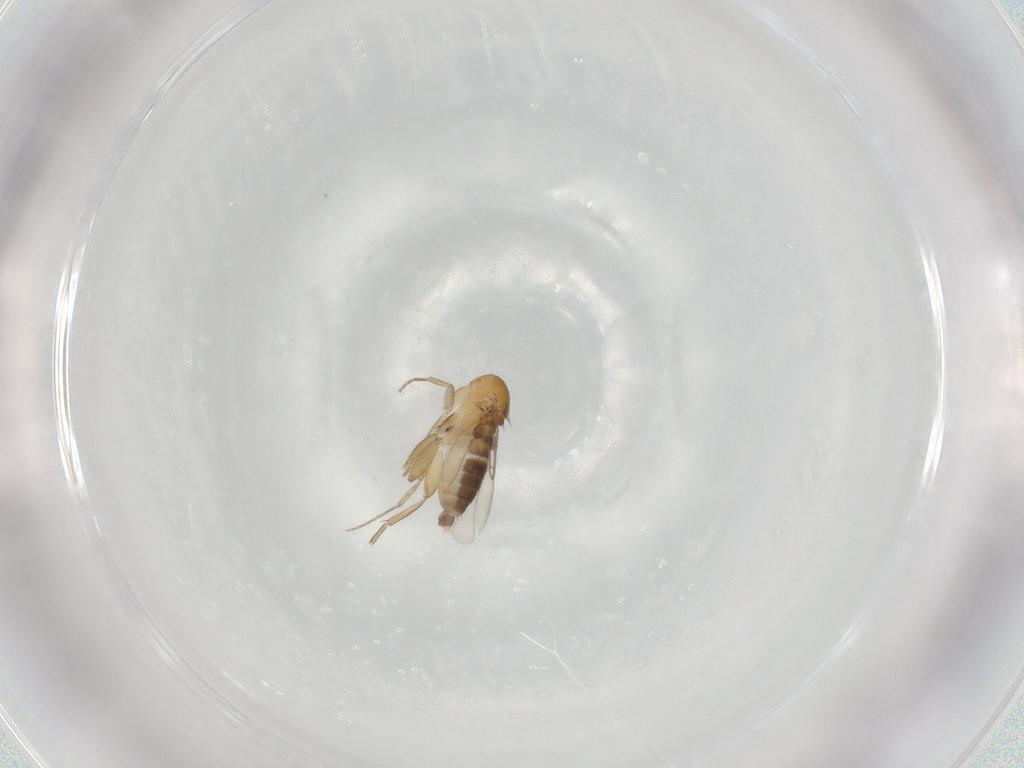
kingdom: Animalia
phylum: Arthropoda
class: Insecta
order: Diptera
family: Phoridae
